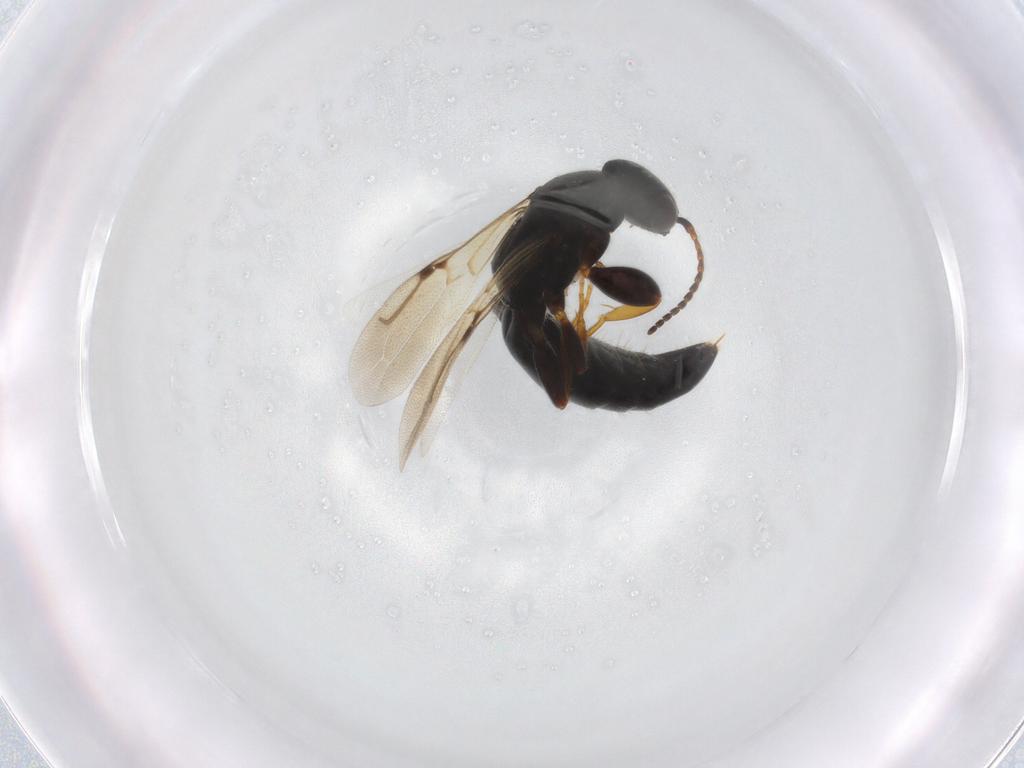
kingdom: Animalia
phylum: Arthropoda
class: Insecta
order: Hymenoptera
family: Bethylidae
